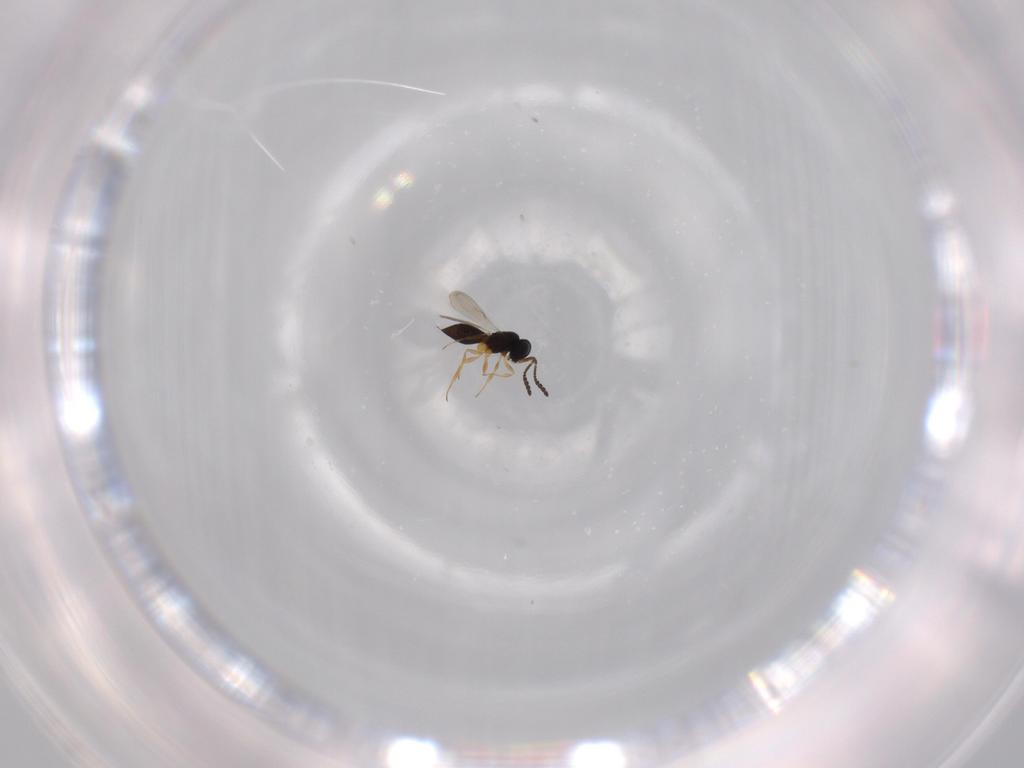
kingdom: Animalia
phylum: Arthropoda
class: Insecta
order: Hymenoptera
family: Scelionidae
